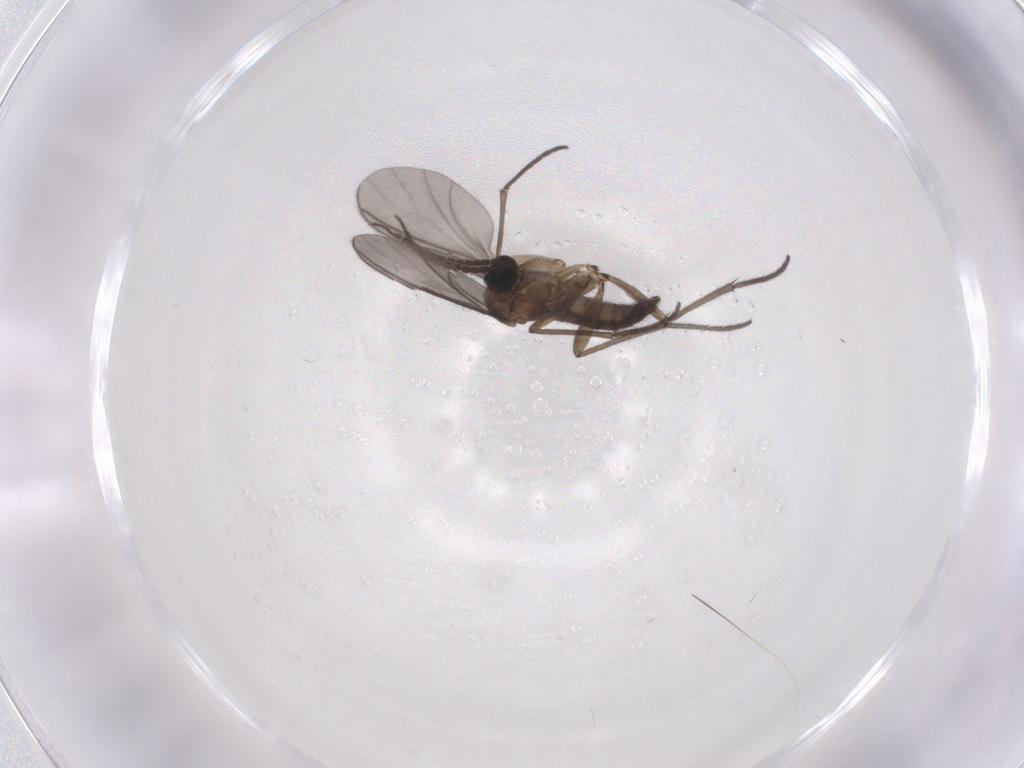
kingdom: Animalia
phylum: Arthropoda
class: Insecta
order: Diptera
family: Sciaridae
